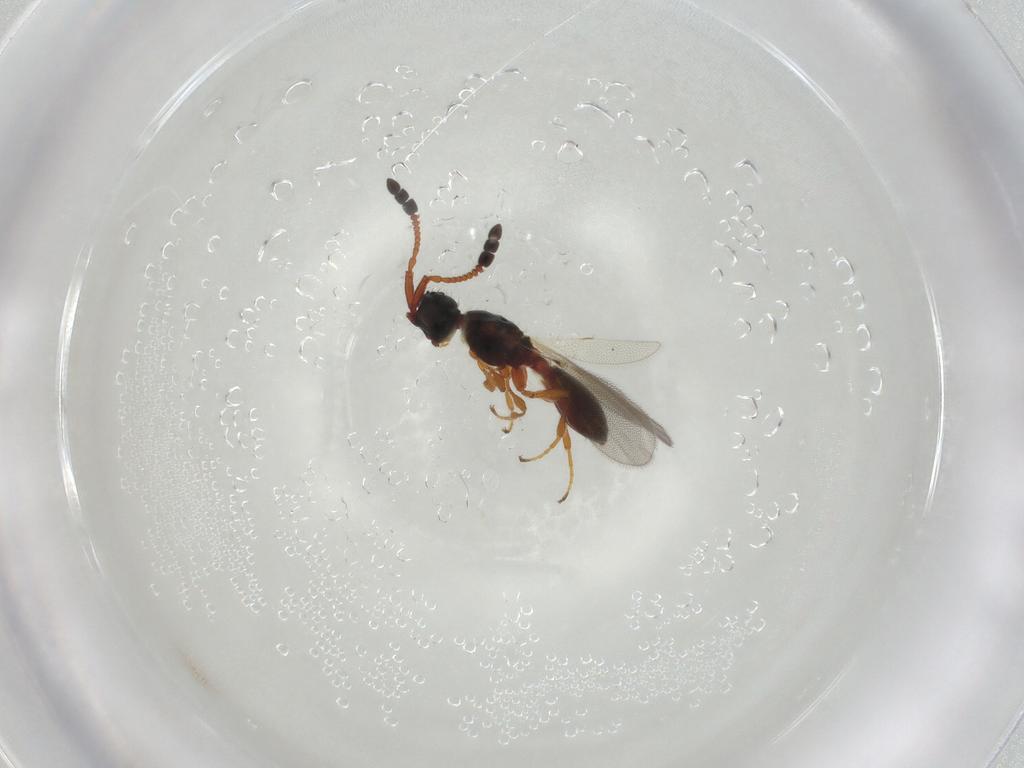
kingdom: Animalia
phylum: Arthropoda
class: Insecta
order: Hymenoptera
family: Diapriidae
